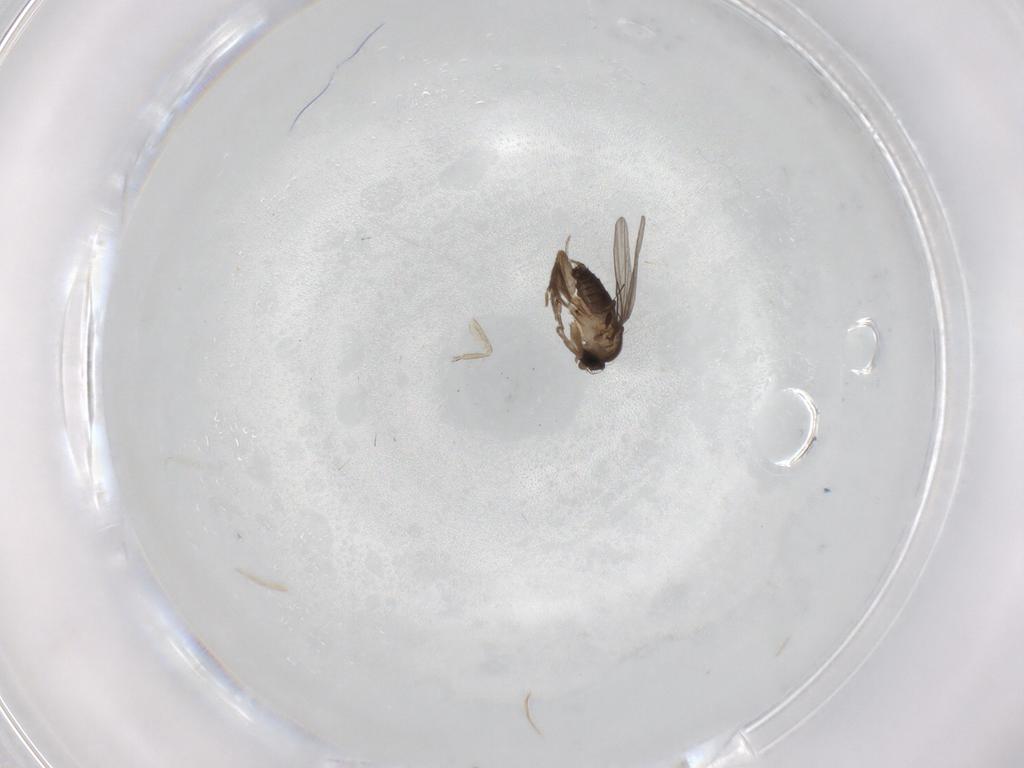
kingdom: Animalia
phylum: Arthropoda
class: Insecta
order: Diptera
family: Phoridae
